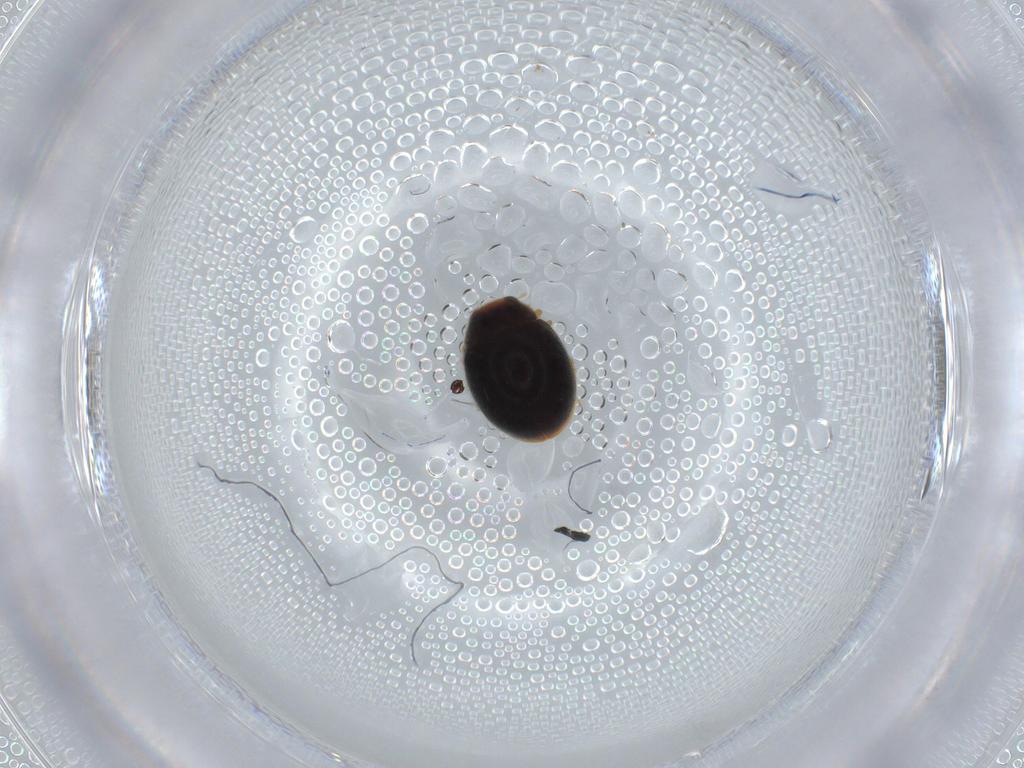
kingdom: Animalia
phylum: Arthropoda
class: Insecta
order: Coleoptera
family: Coccinellidae
